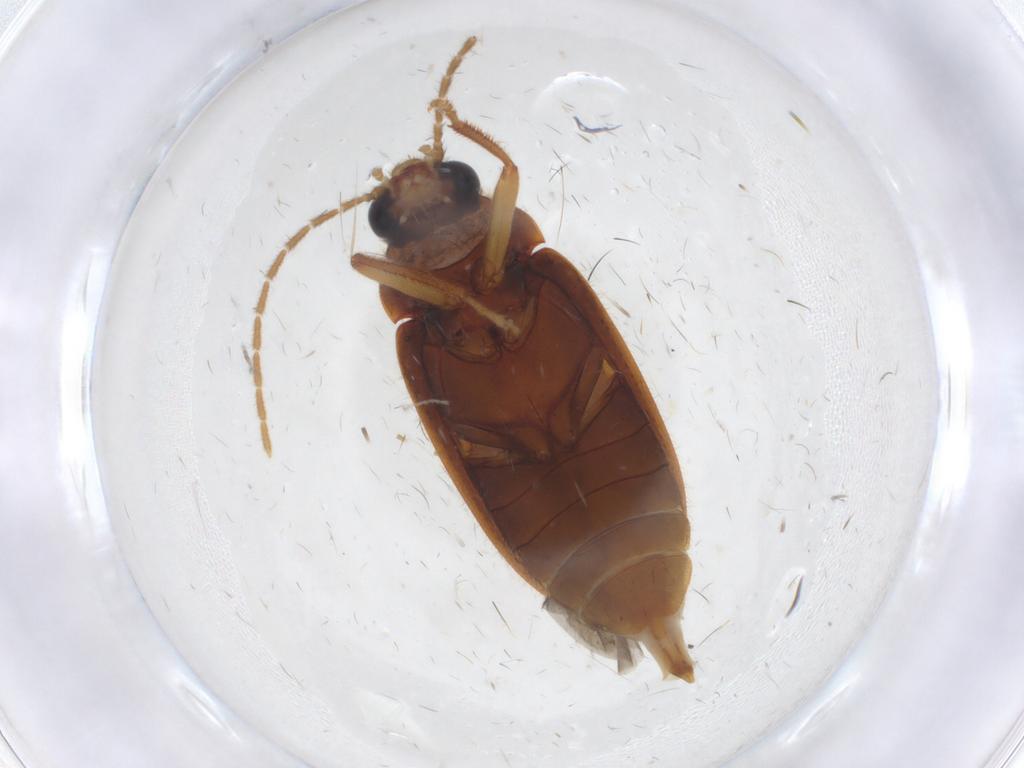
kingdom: Animalia
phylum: Arthropoda
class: Insecta
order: Coleoptera
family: Ptilodactylidae
